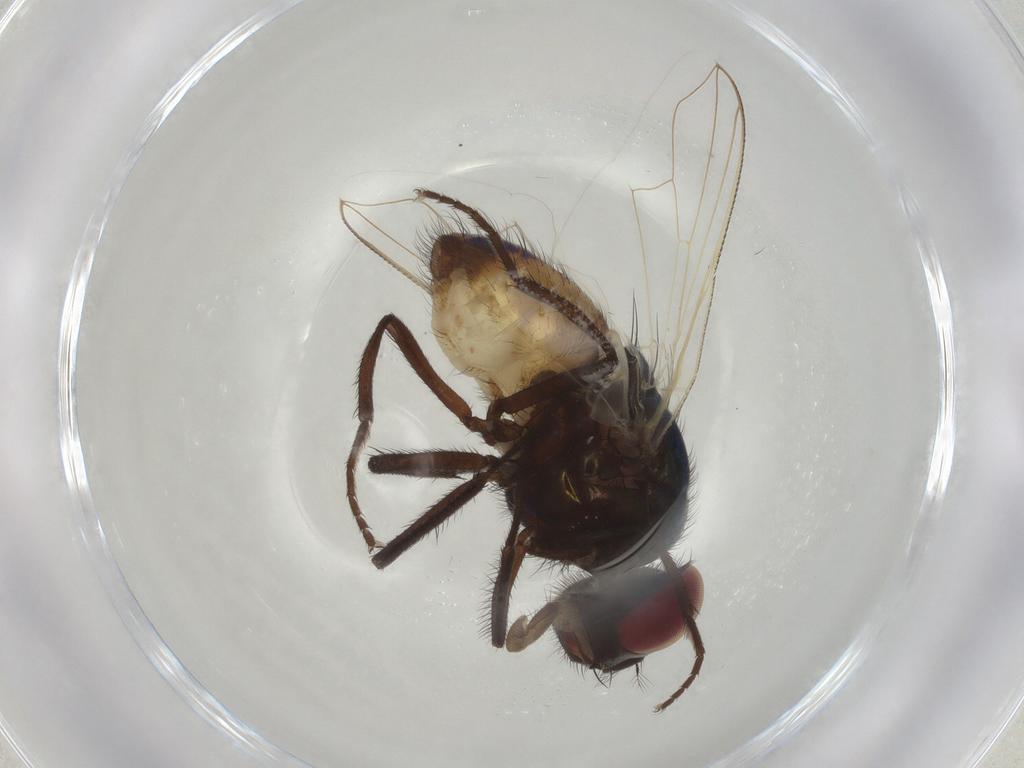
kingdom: Animalia
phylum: Arthropoda
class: Insecta
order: Diptera
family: Muscidae
